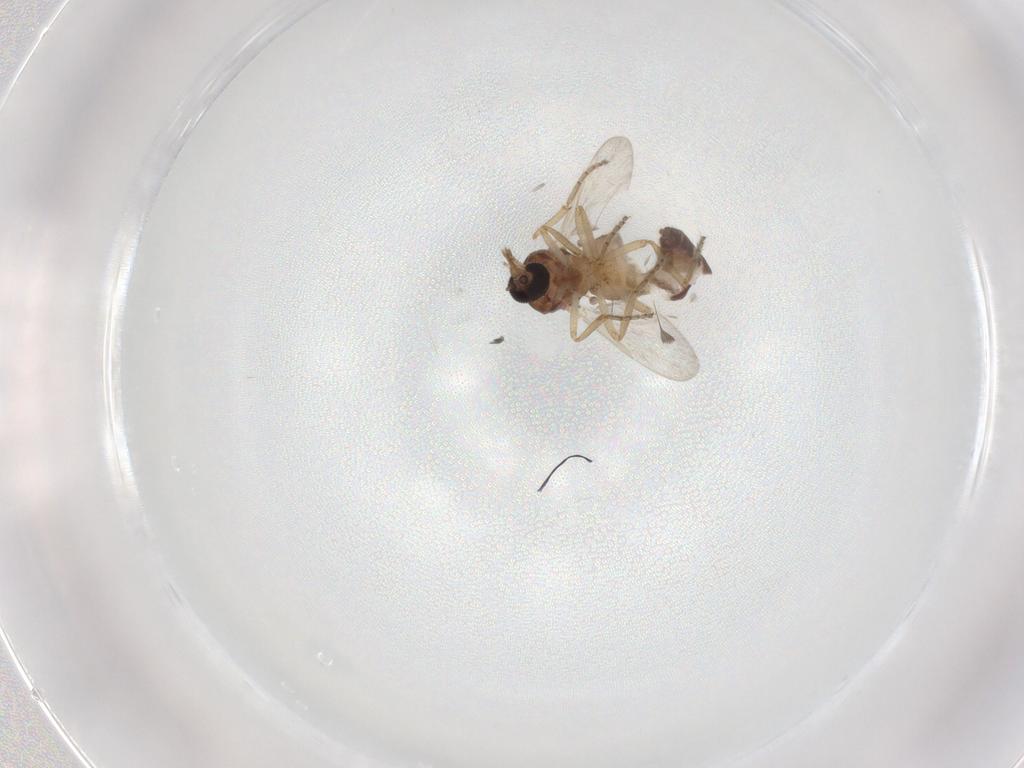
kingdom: Animalia
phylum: Arthropoda
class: Insecta
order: Diptera
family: Ceratopogonidae
